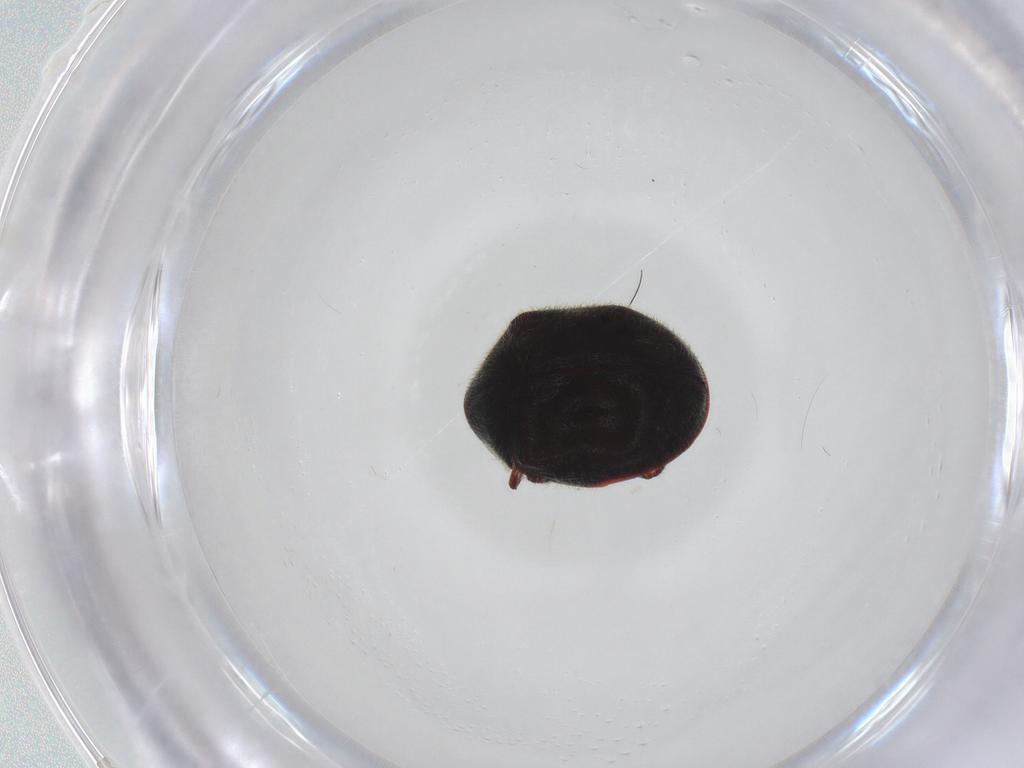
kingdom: Animalia
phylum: Arthropoda
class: Insecta
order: Coleoptera
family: Ptinidae
